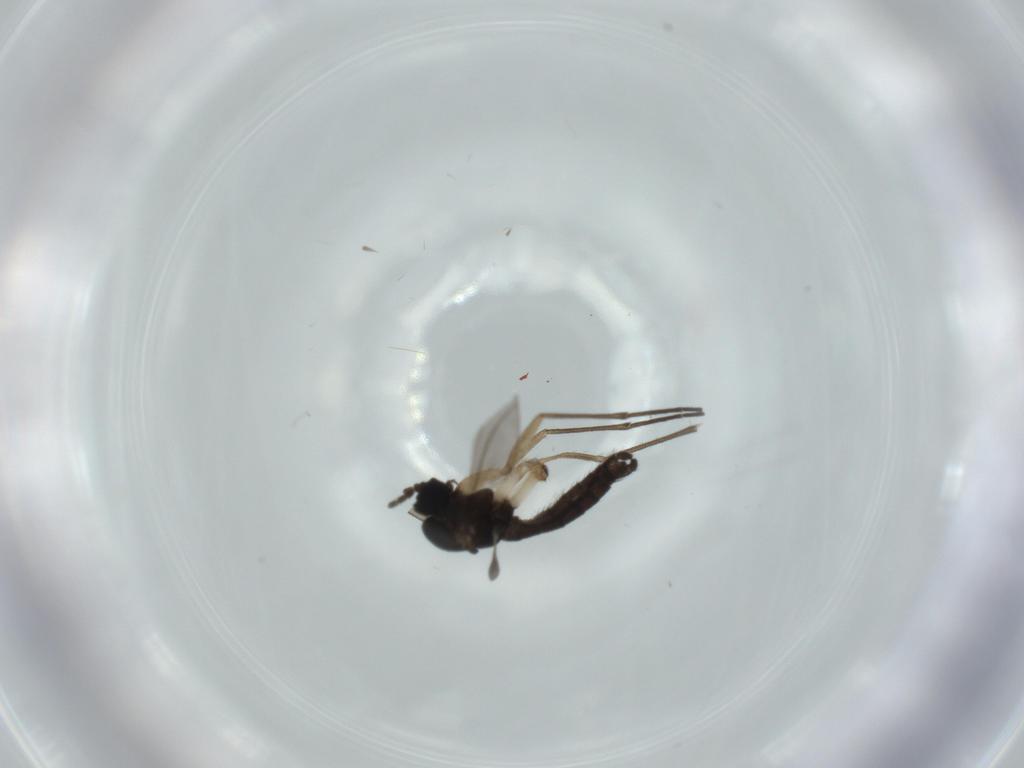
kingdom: Animalia
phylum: Arthropoda
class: Insecta
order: Diptera
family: Sciaridae
